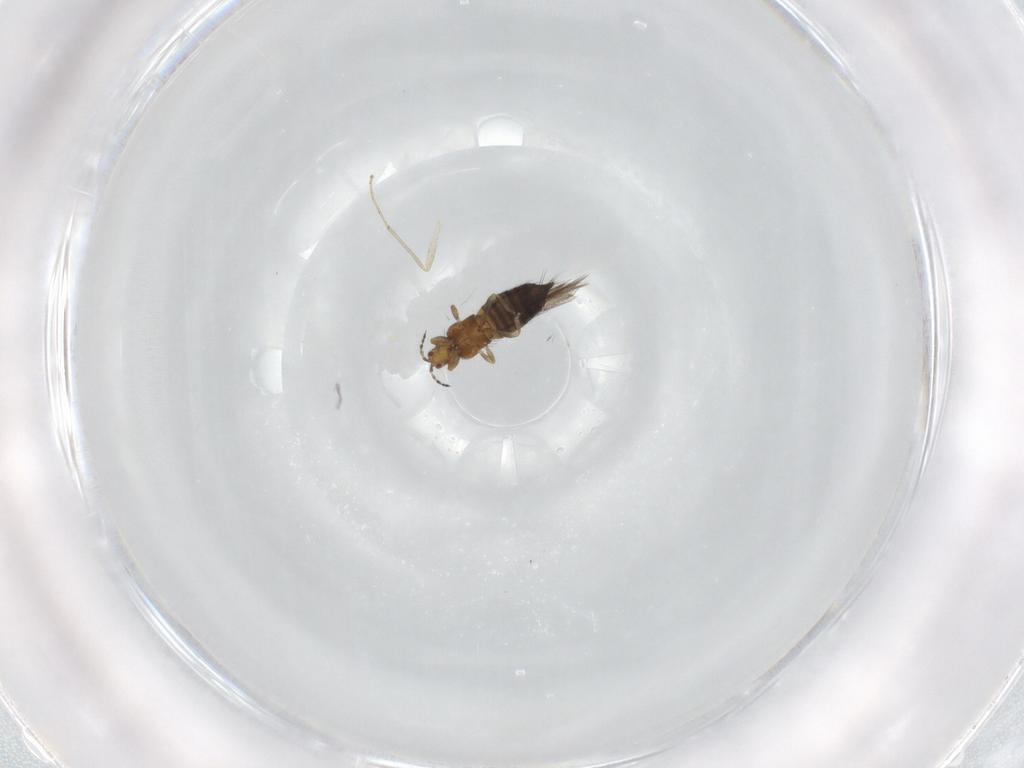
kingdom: Animalia
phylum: Arthropoda
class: Insecta
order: Thysanoptera
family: Thripidae
